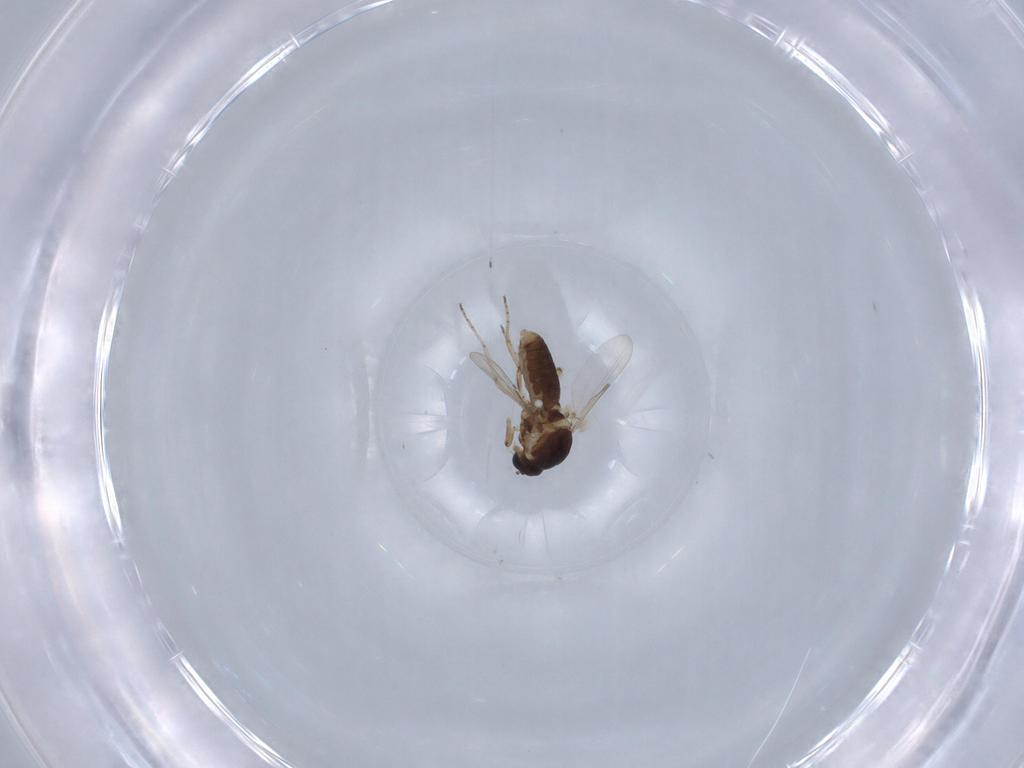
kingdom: Animalia
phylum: Arthropoda
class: Insecta
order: Diptera
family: Ceratopogonidae
